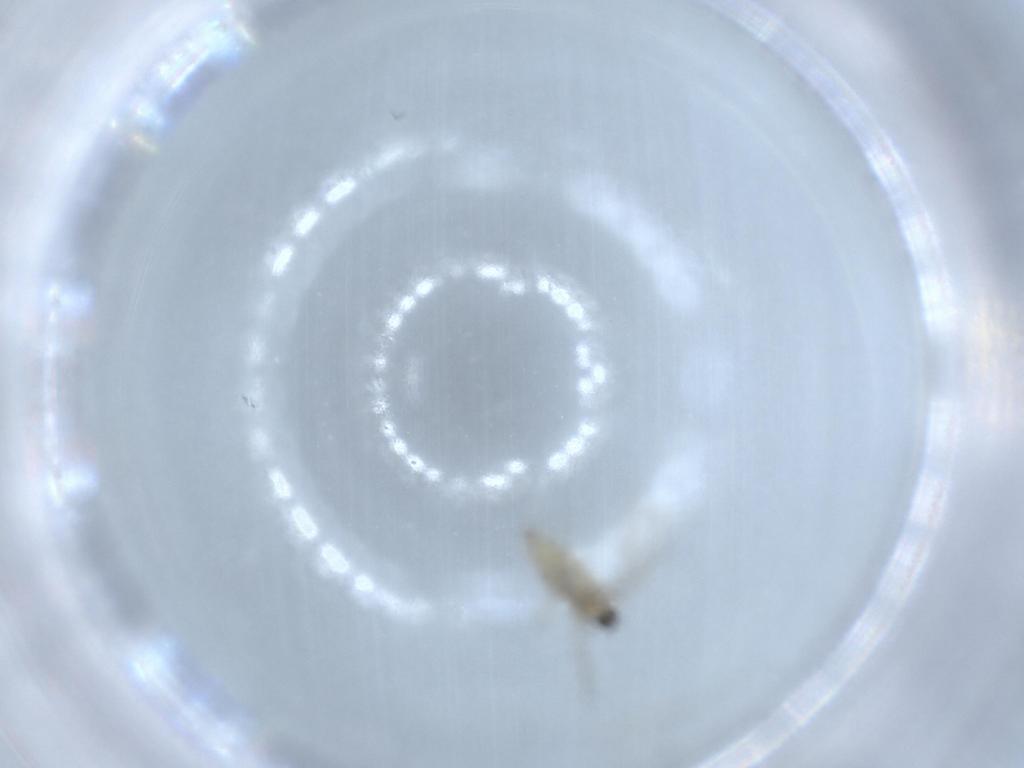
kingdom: Animalia
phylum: Arthropoda
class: Insecta
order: Diptera
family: Cecidomyiidae
